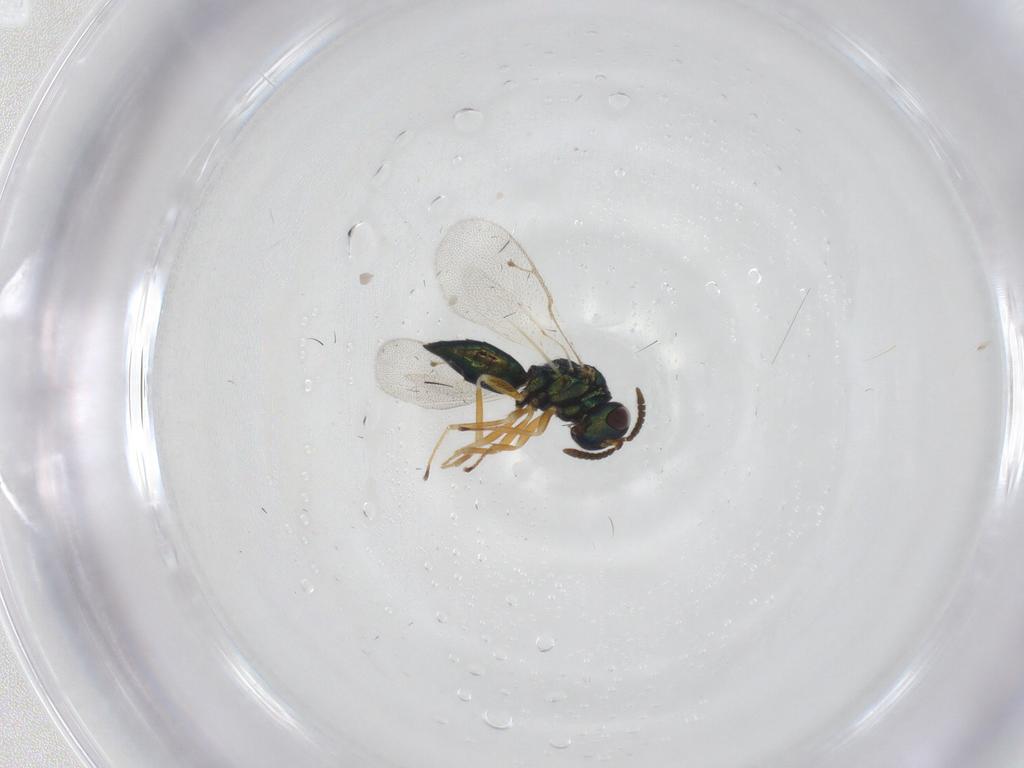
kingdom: Animalia
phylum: Arthropoda
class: Insecta
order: Hymenoptera
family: Pteromalidae
